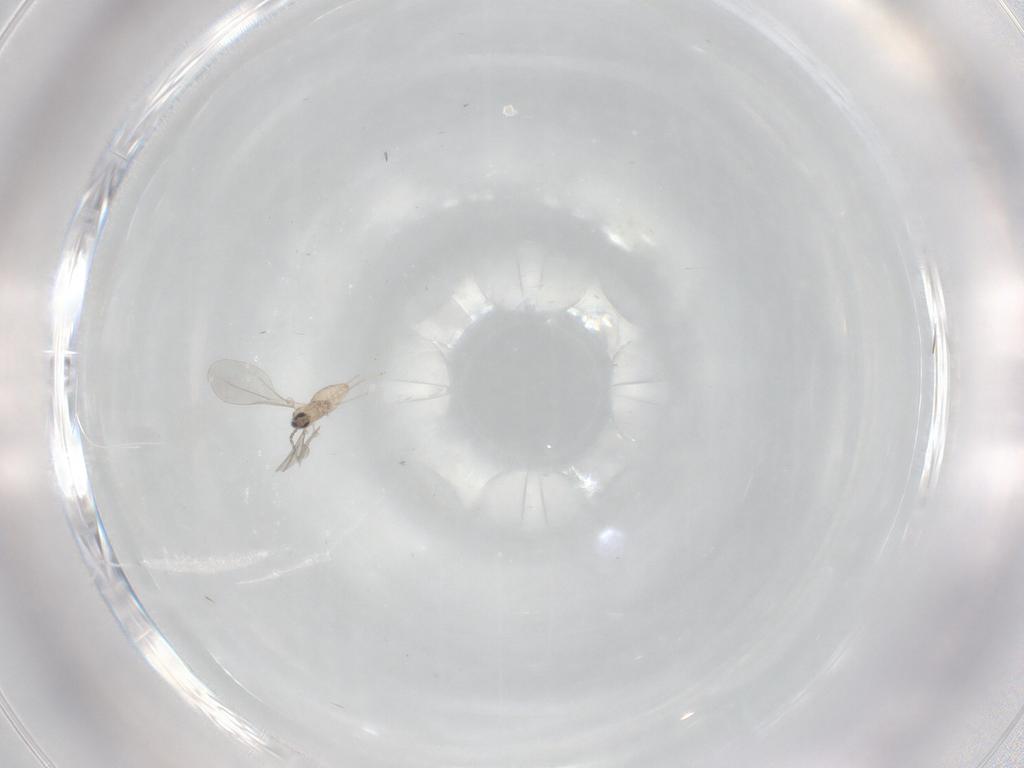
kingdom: Animalia
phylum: Arthropoda
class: Insecta
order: Diptera
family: Cecidomyiidae
